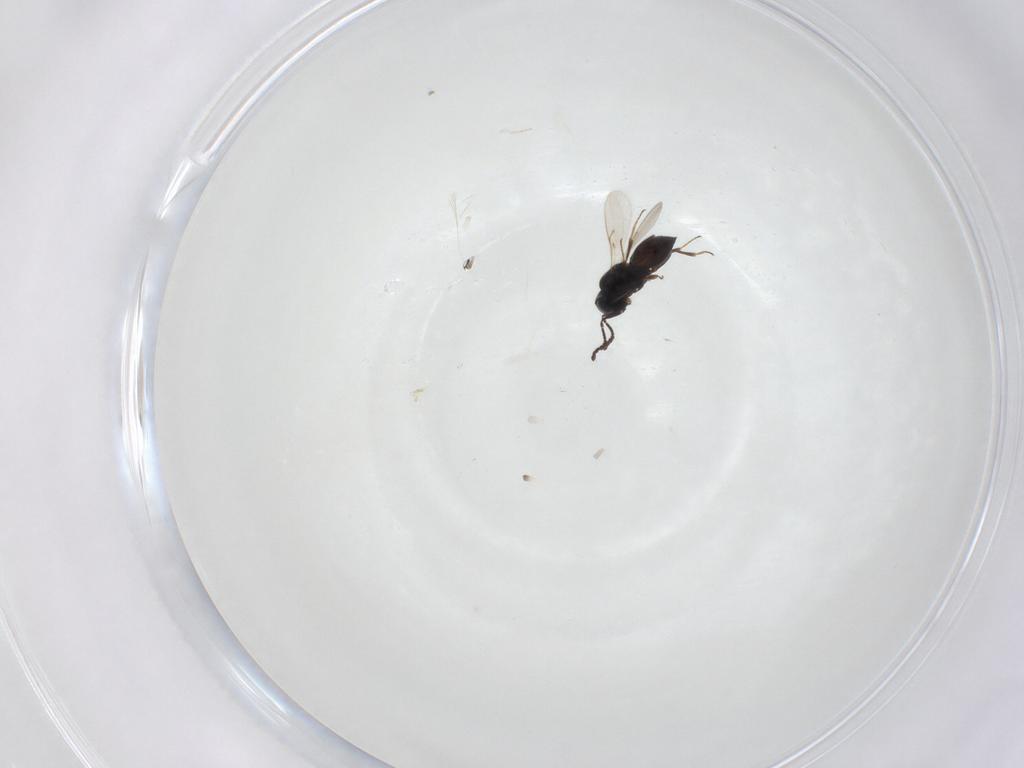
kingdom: Animalia
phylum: Arthropoda
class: Insecta
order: Hymenoptera
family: Scelionidae
